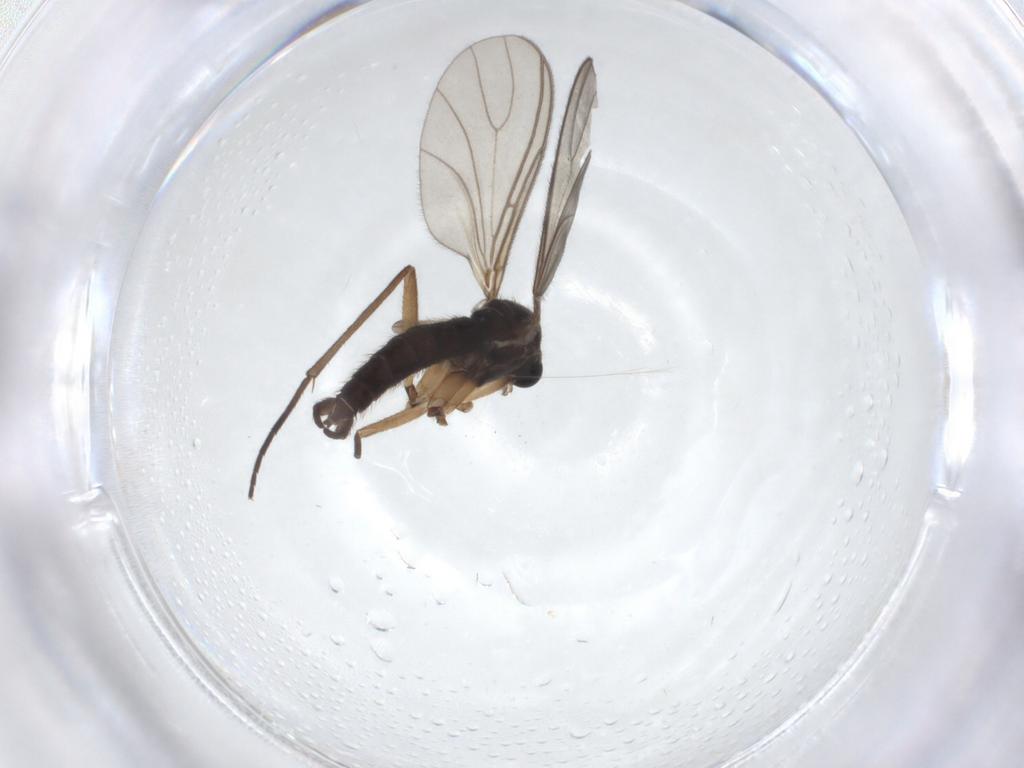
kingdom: Animalia
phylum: Arthropoda
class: Insecta
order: Diptera
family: Sciaridae
